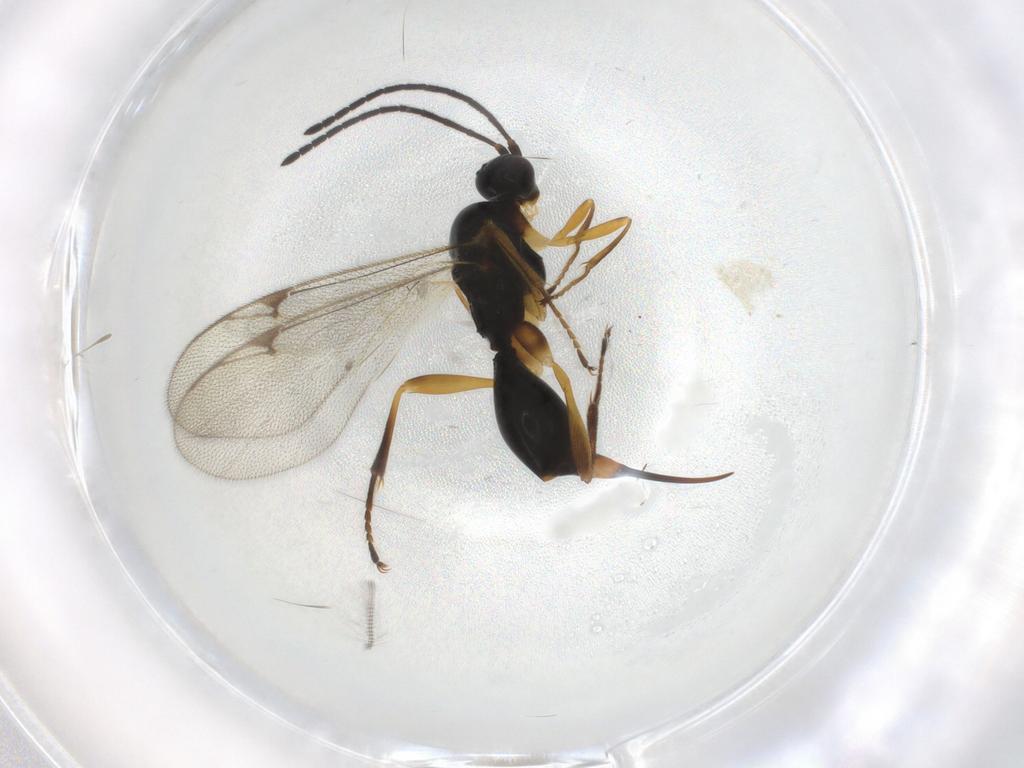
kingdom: Animalia
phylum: Arthropoda
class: Insecta
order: Hymenoptera
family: Proctotrupidae
